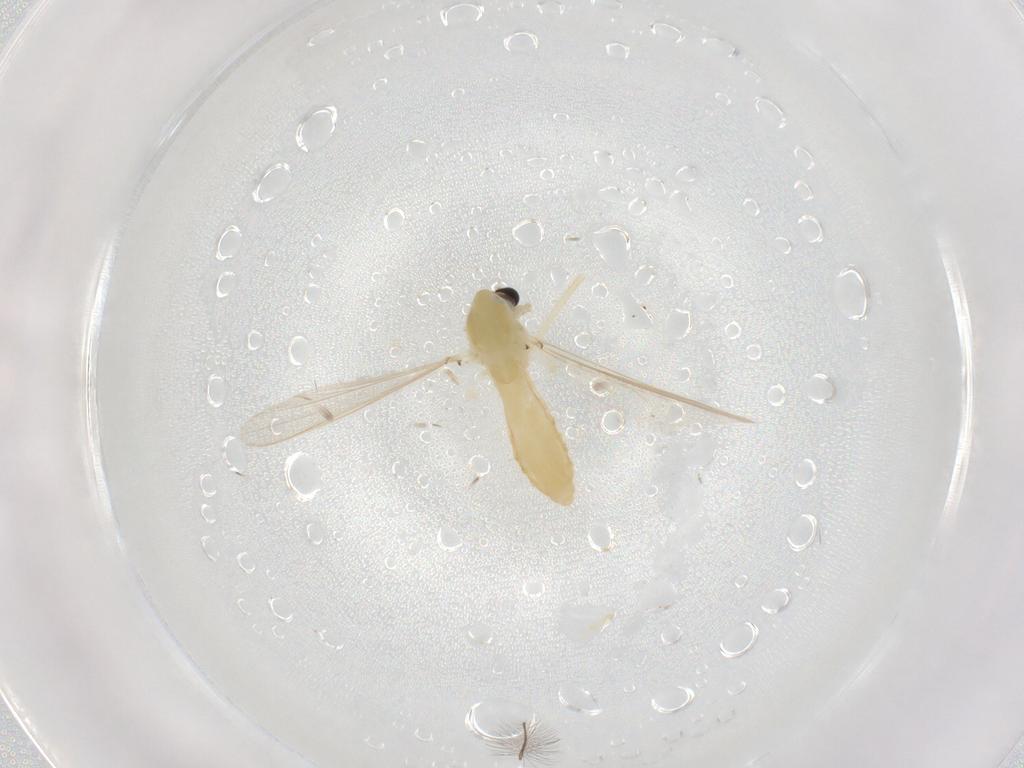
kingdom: Animalia
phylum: Arthropoda
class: Insecta
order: Diptera
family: Chironomidae
